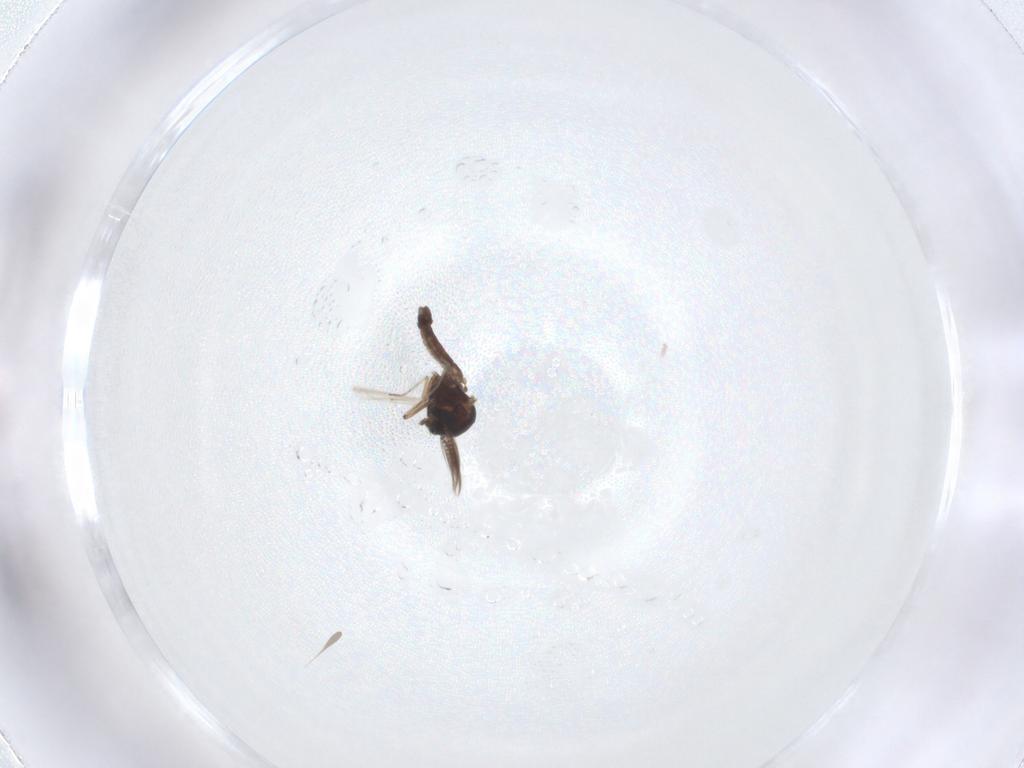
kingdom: Animalia
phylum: Arthropoda
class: Insecta
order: Diptera
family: Ceratopogonidae
